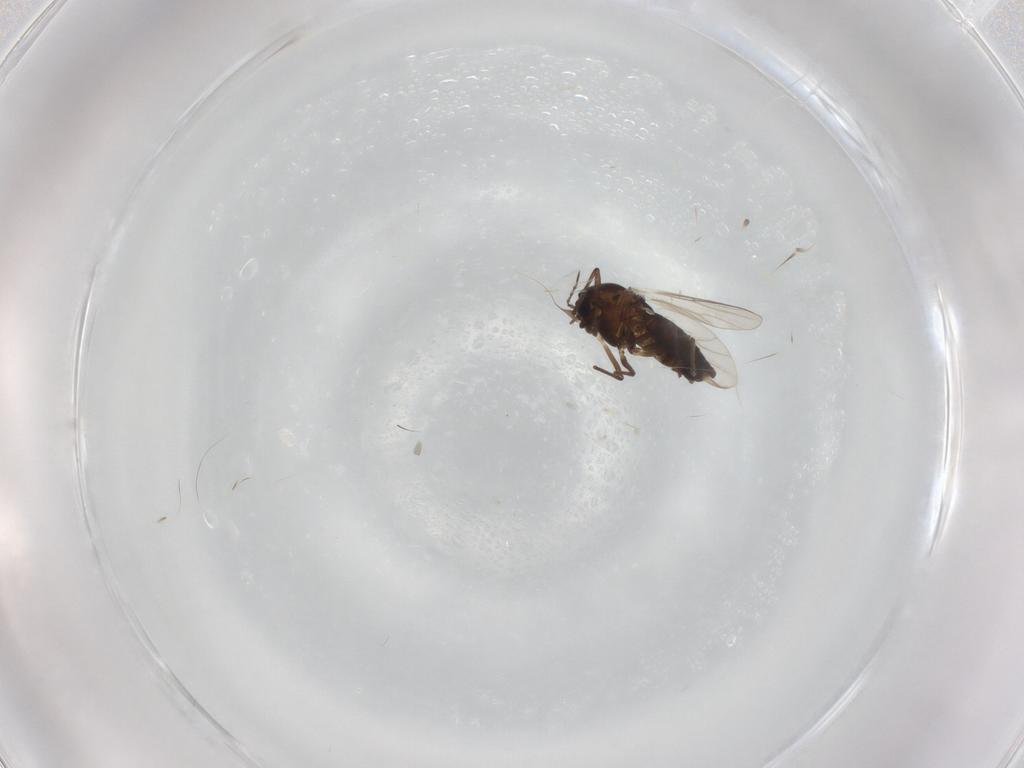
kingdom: Animalia
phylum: Arthropoda
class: Insecta
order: Diptera
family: Chironomidae
